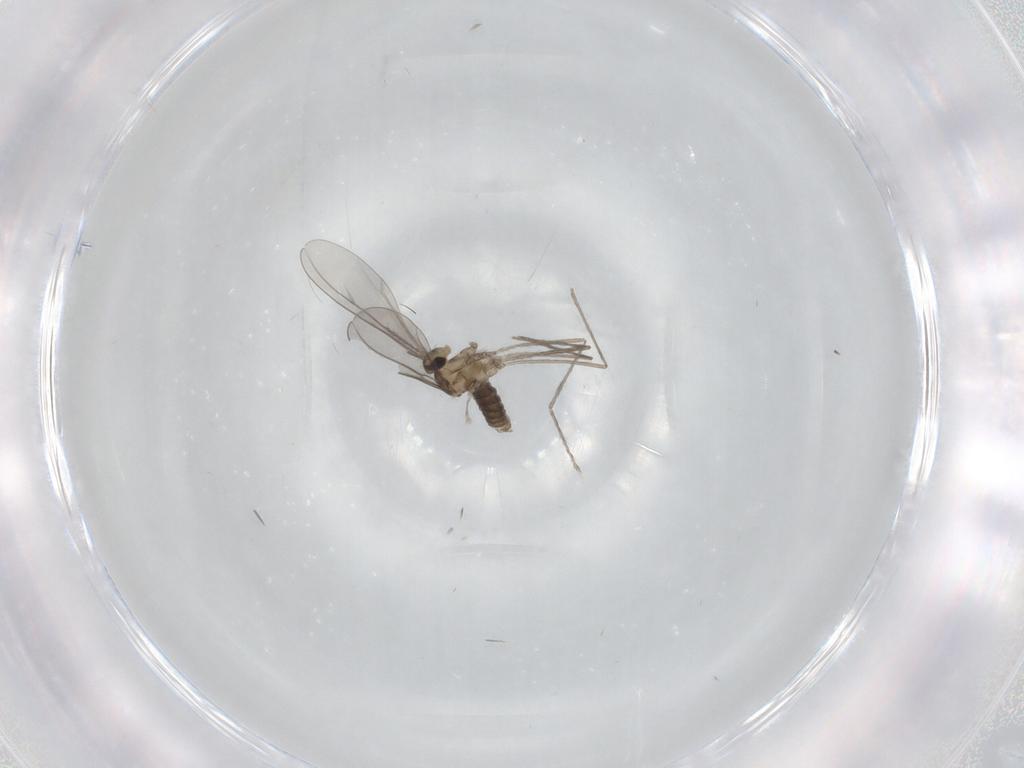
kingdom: Animalia
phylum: Arthropoda
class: Insecta
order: Diptera
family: Cecidomyiidae
